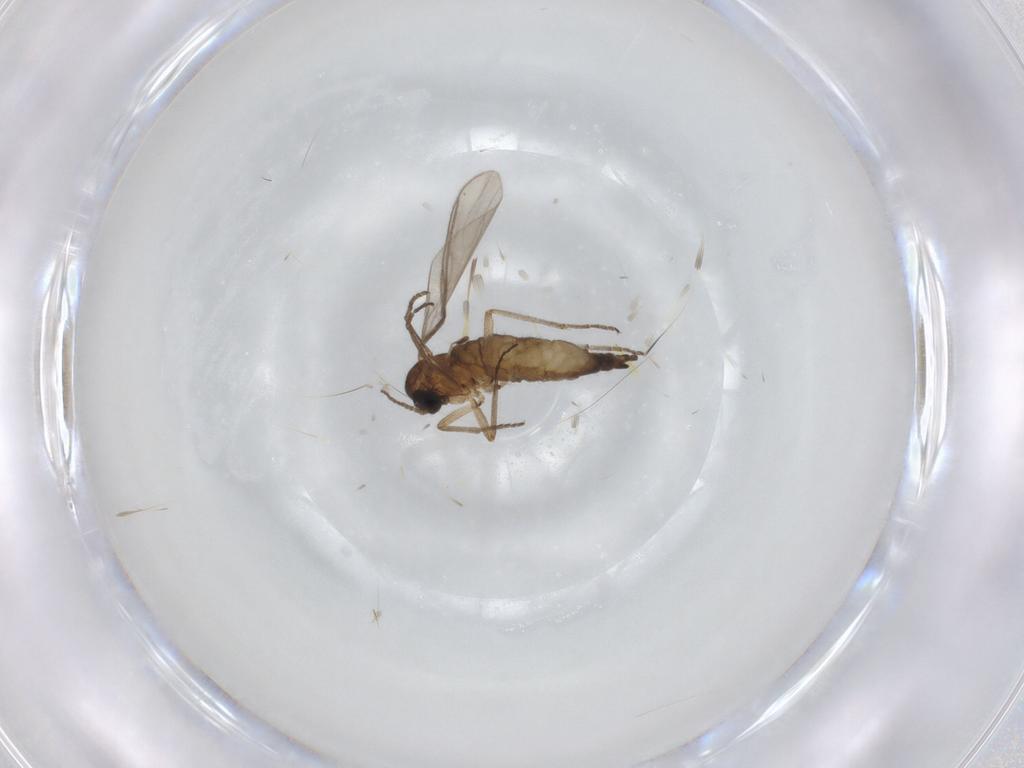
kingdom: Animalia
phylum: Arthropoda
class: Insecta
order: Diptera
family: Sciaridae
